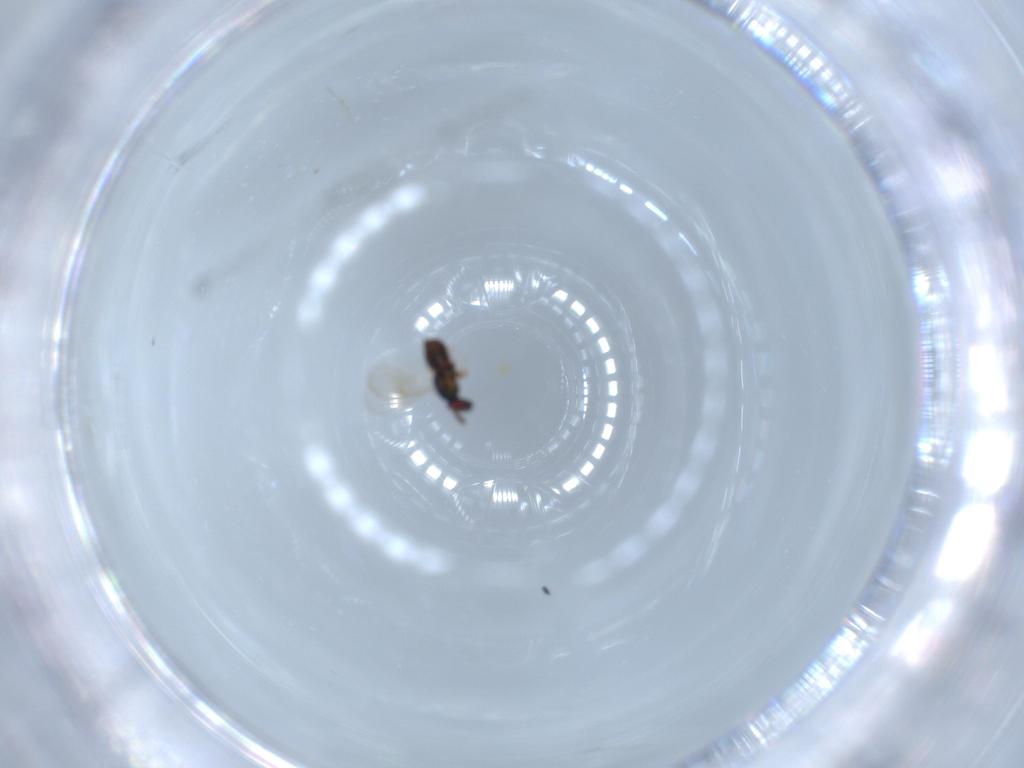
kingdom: Animalia
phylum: Arthropoda
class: Insecta
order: Hymenoptera
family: Eulophidae
